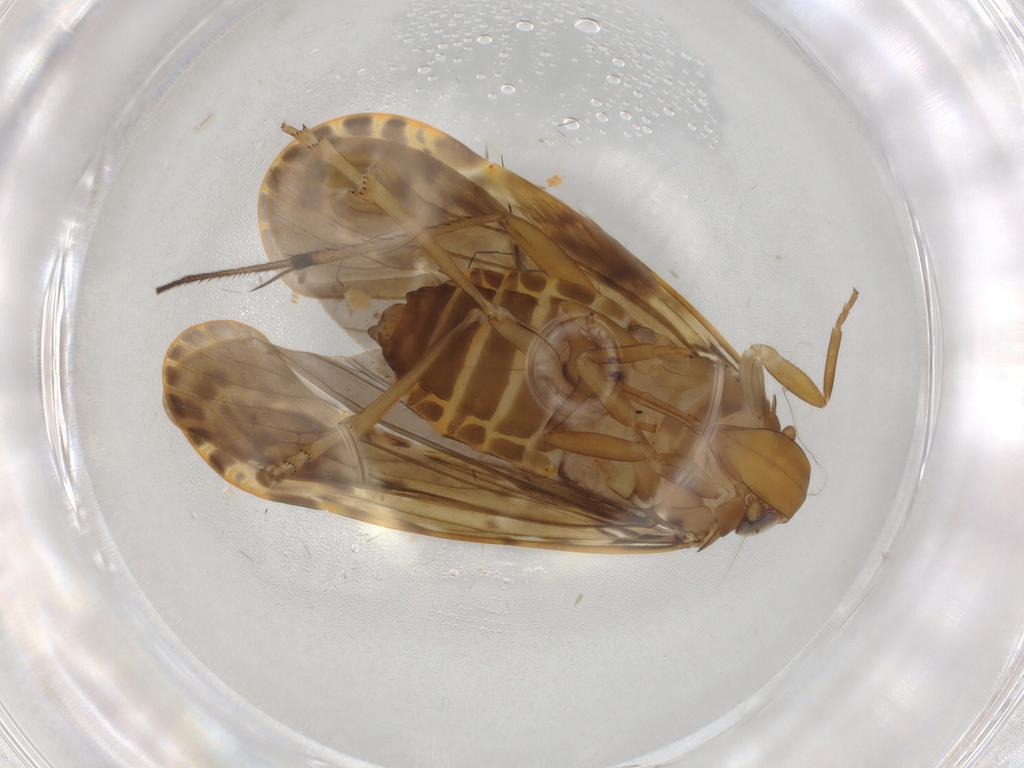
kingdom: Animalia
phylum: Arthropoda
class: Insecta
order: Hemiptera
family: Achilidae
